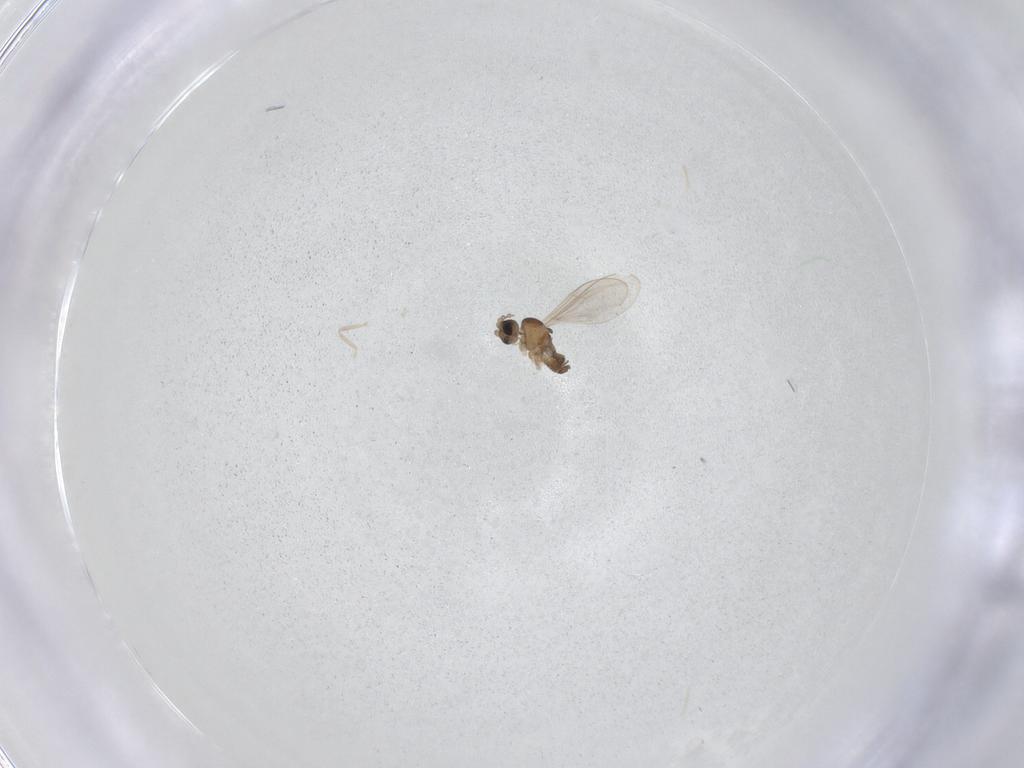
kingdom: Animalia
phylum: Arthropoda
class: Insecta
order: Diptera
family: Cecidomyiidae
